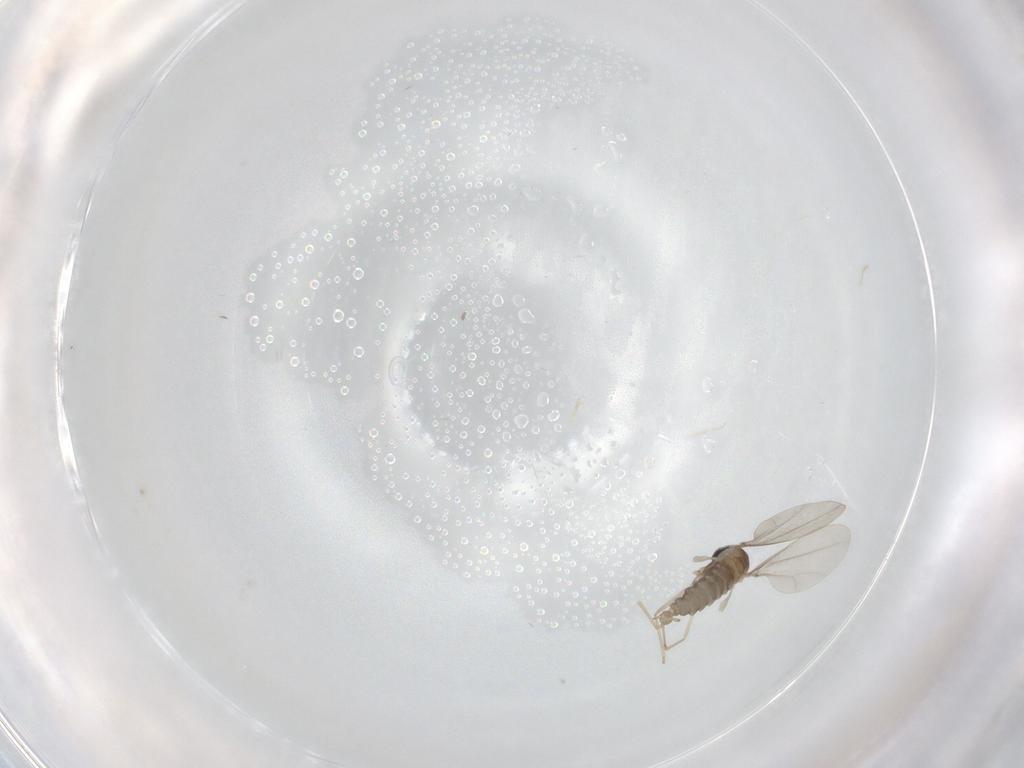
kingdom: Animalia
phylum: Arthropoda
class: Insecta
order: Diptera
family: Cecidomyiidae
